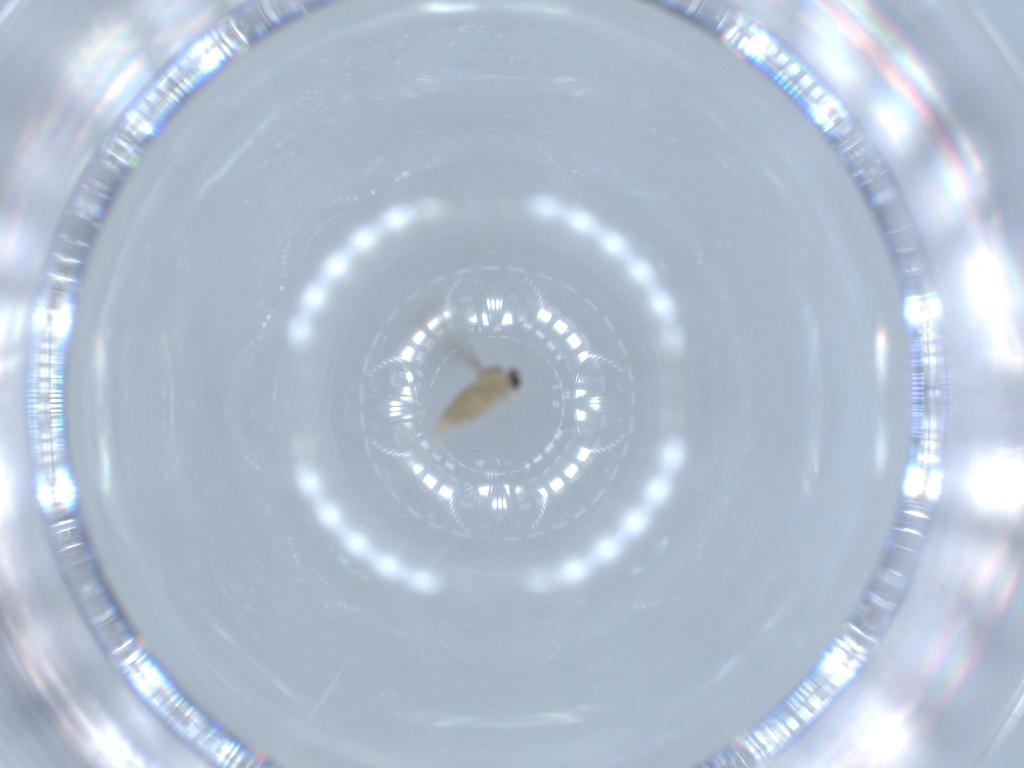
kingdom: Animalia
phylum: Arthropoda
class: Insecta
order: Diptera
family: Cecidomyiidae
